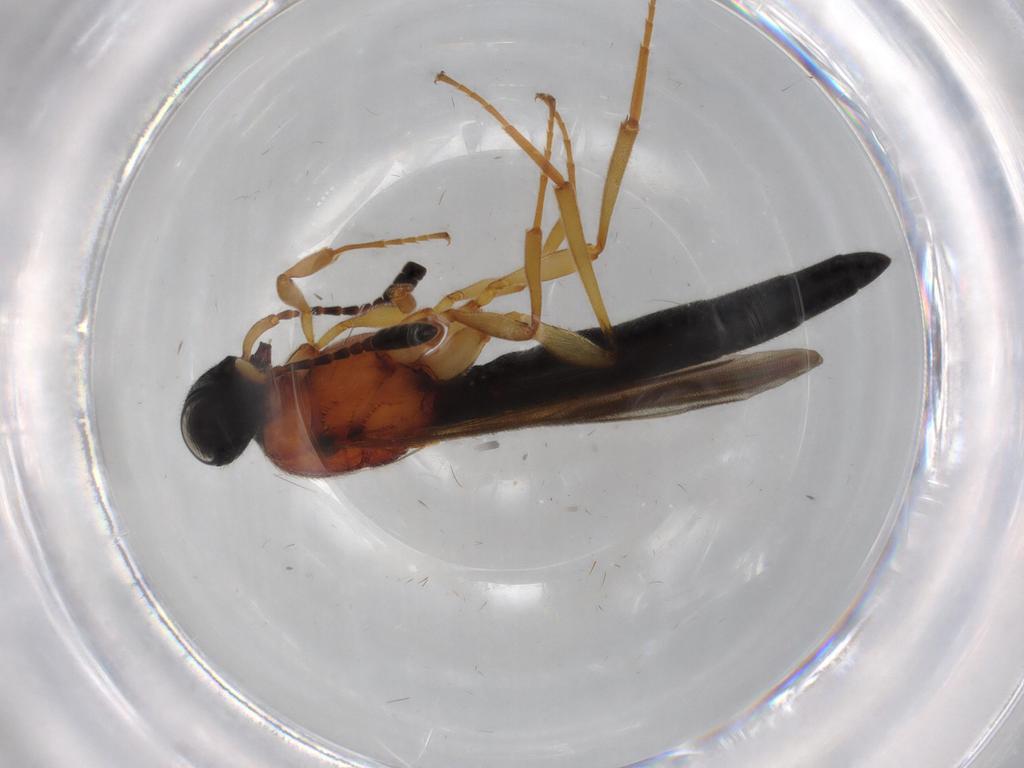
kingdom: Animalia
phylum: Arthropoda
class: Insecta
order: Hymenoptera
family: Scelionidae
